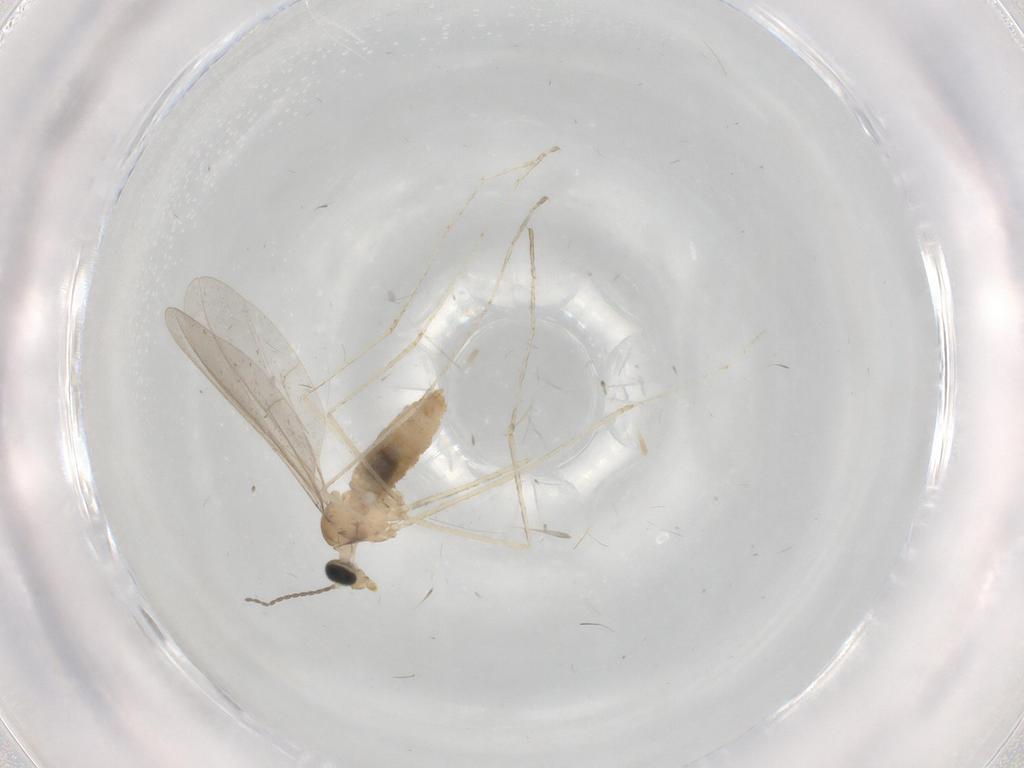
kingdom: Animalia
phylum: Arthropoda
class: Insecta
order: Diptera
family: Cecidomyiidae
